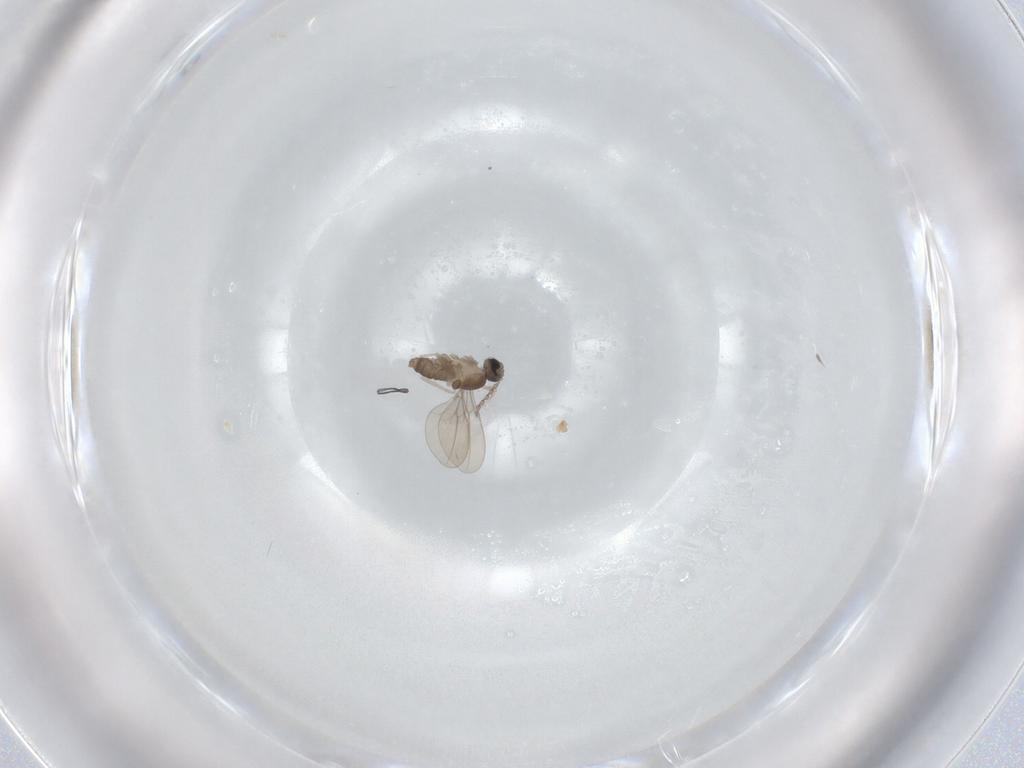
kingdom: Animalia
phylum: Arthropoda
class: Insecta
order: Diptera
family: Cecidomyiidae
